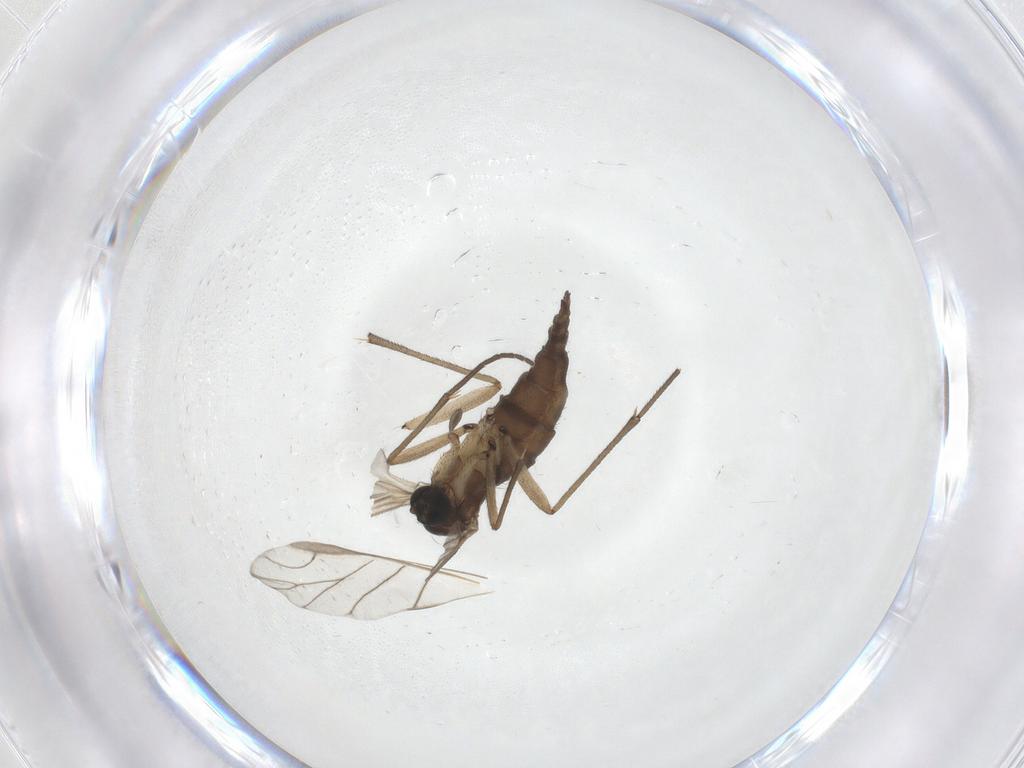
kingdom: Animalia
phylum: Arthropoda
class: Insecta
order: Diptera
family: Sciaridae
